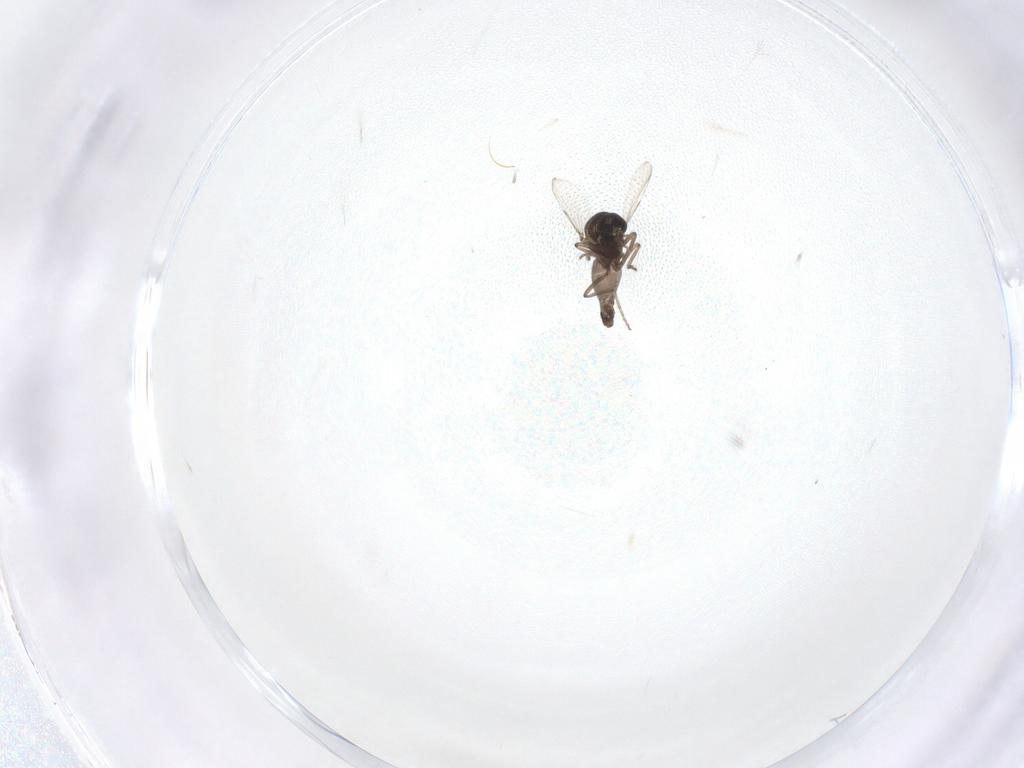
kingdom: Animalia
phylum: Arthropoda
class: Insecta
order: Diptera
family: Ceratopogonidae
